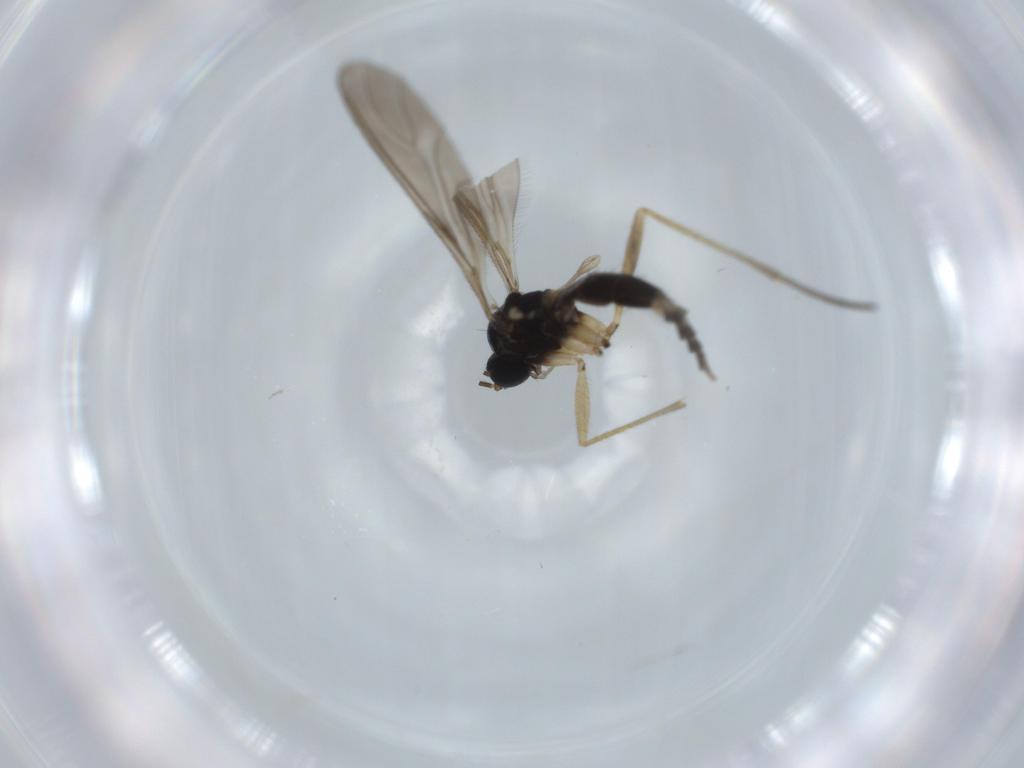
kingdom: Animalia
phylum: Arthropoda
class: Insecta
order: Diptera
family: Sciaridae
